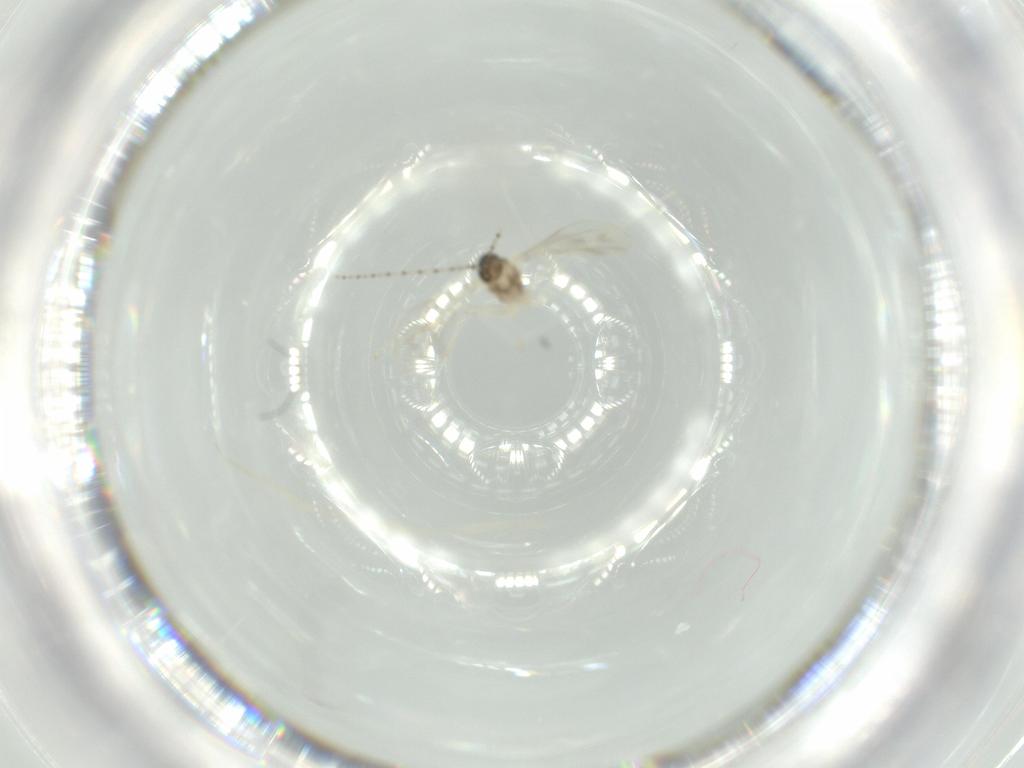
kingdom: Animalia
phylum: Arthropoda
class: Insecta
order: Diptera
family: Cecidomyiidae
